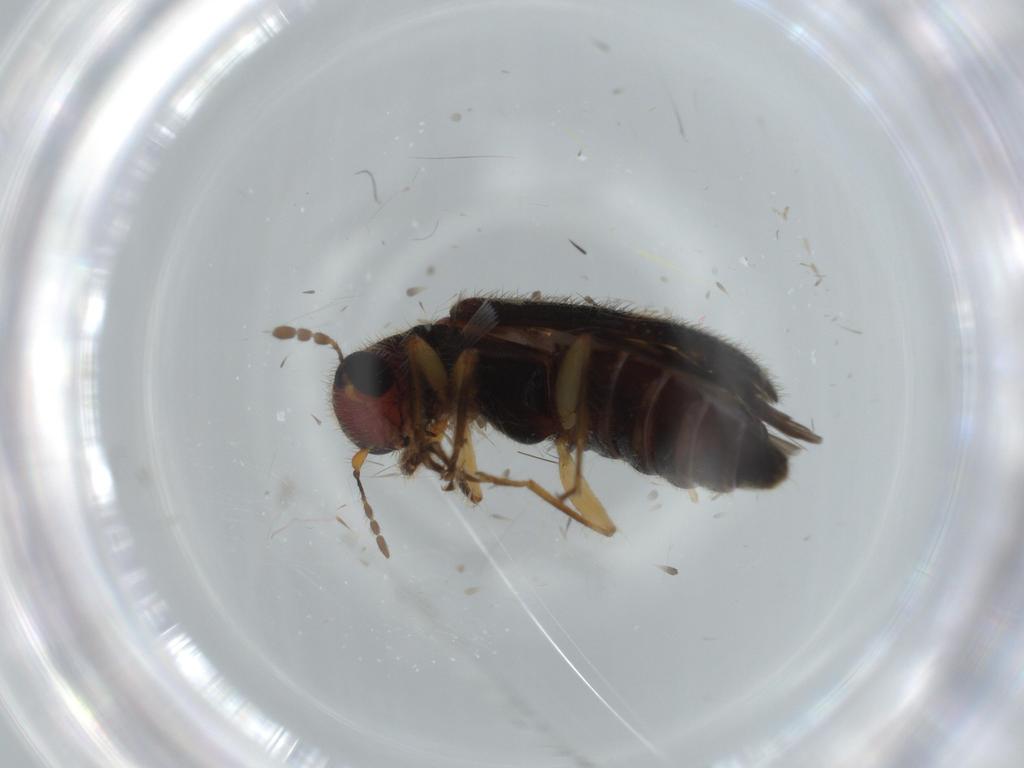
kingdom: Animalia
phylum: Arthropoda
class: Insecta
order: Coleoptera
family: Cleridae
